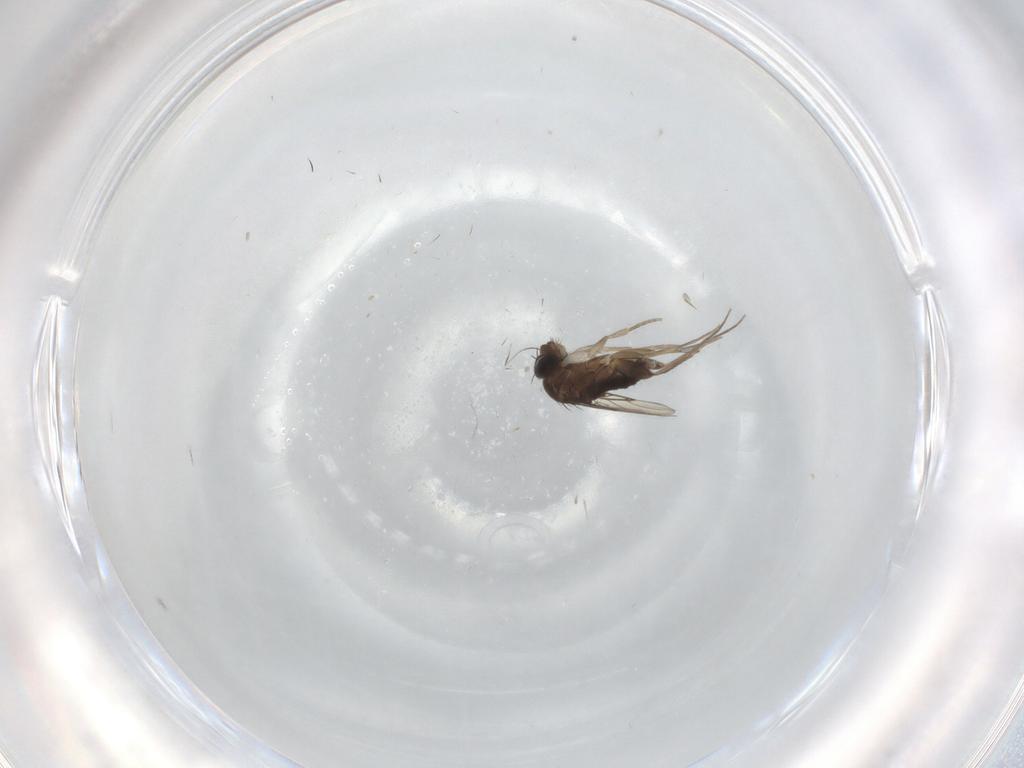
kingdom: Animalia
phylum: Arthropoda
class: Insecta
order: Diptera
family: Phoridae
